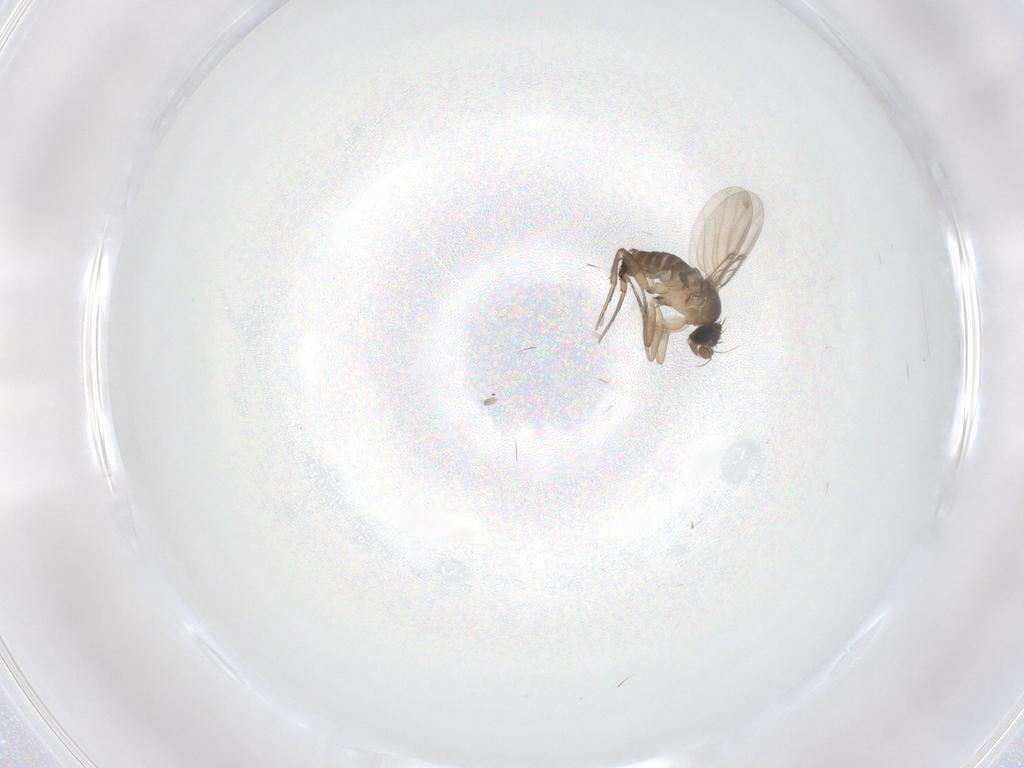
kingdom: Animalia
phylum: Arthropoda
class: Insecta
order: Diptera
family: Phoridae
